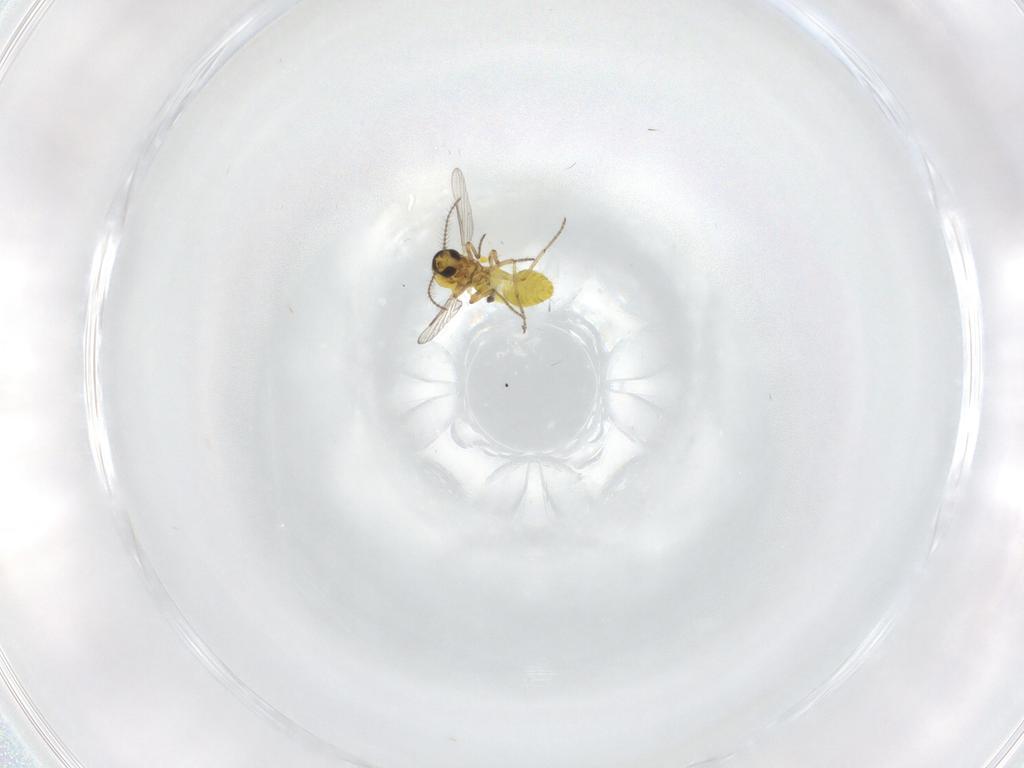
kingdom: Animalia
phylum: Arthropoda
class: Insecta
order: Diptera
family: Ceratopogonidae
